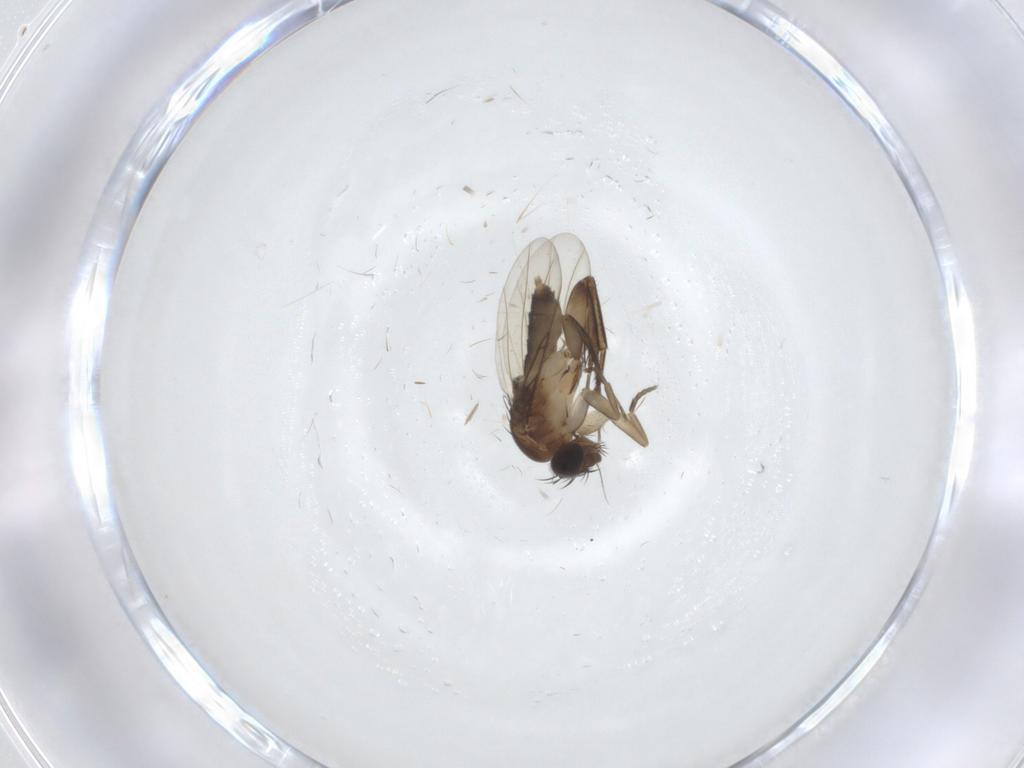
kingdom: Animalia
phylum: Arthropoda
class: Insecta
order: Diptera
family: Phoridae
